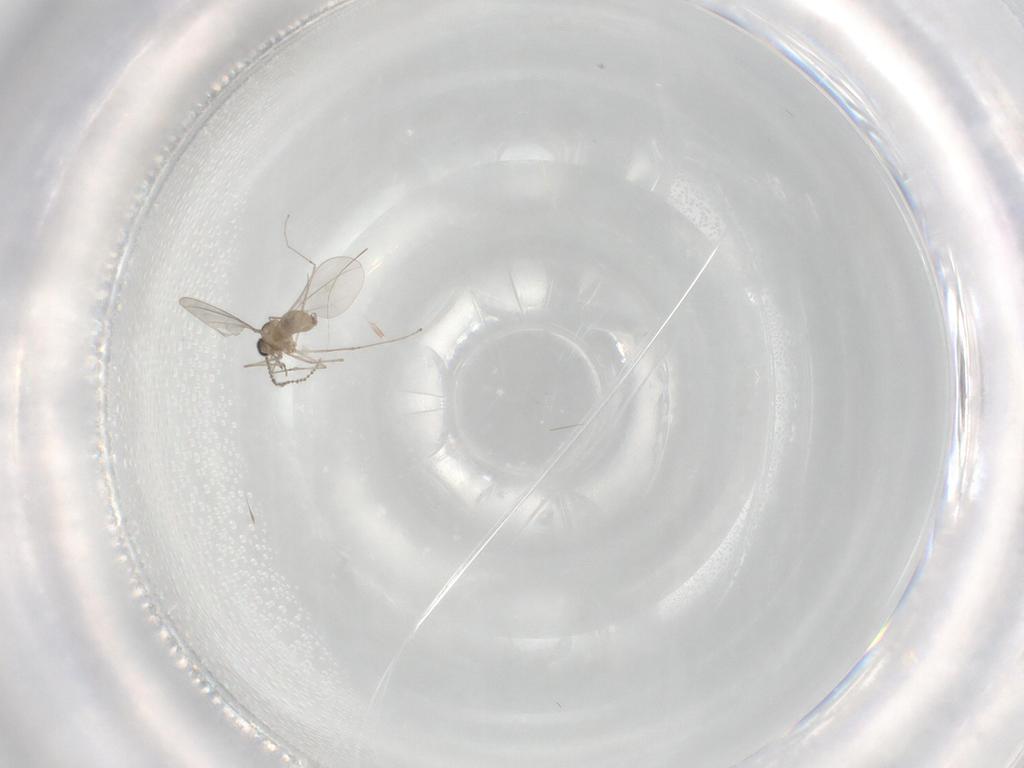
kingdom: Animalia
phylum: Arthropoda
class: Insecta
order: Diptera
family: Cecidomyiidae
